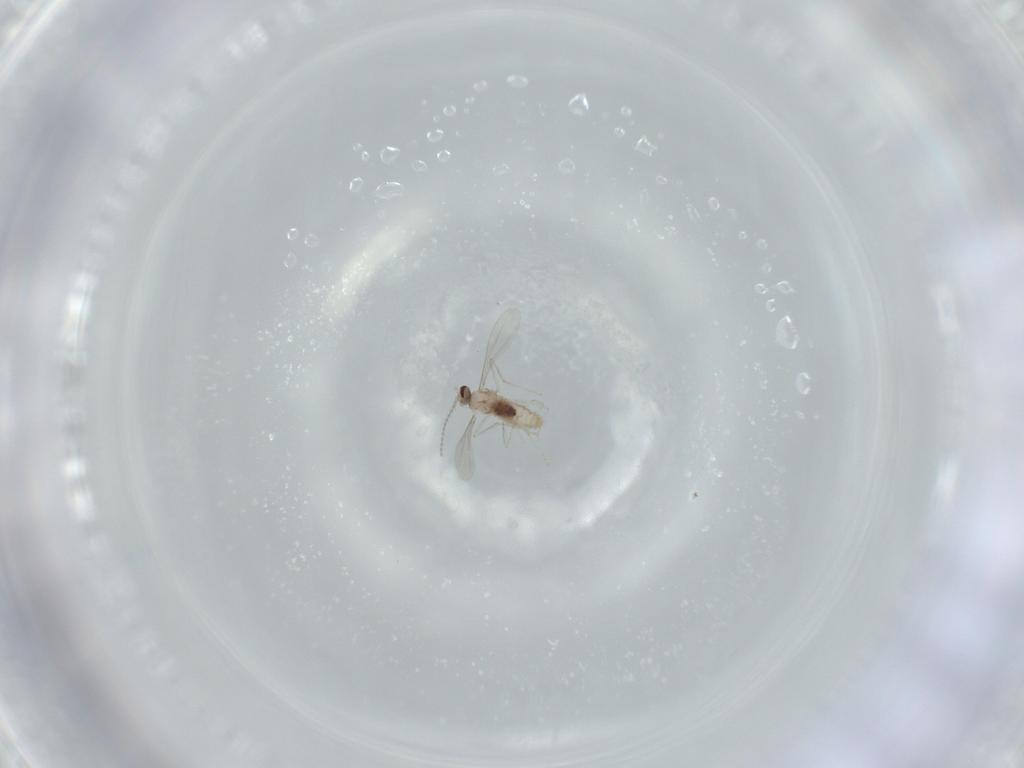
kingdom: Animalia
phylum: Arthropoda
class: Insecta
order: Diptera
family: Cecidomyiidae
